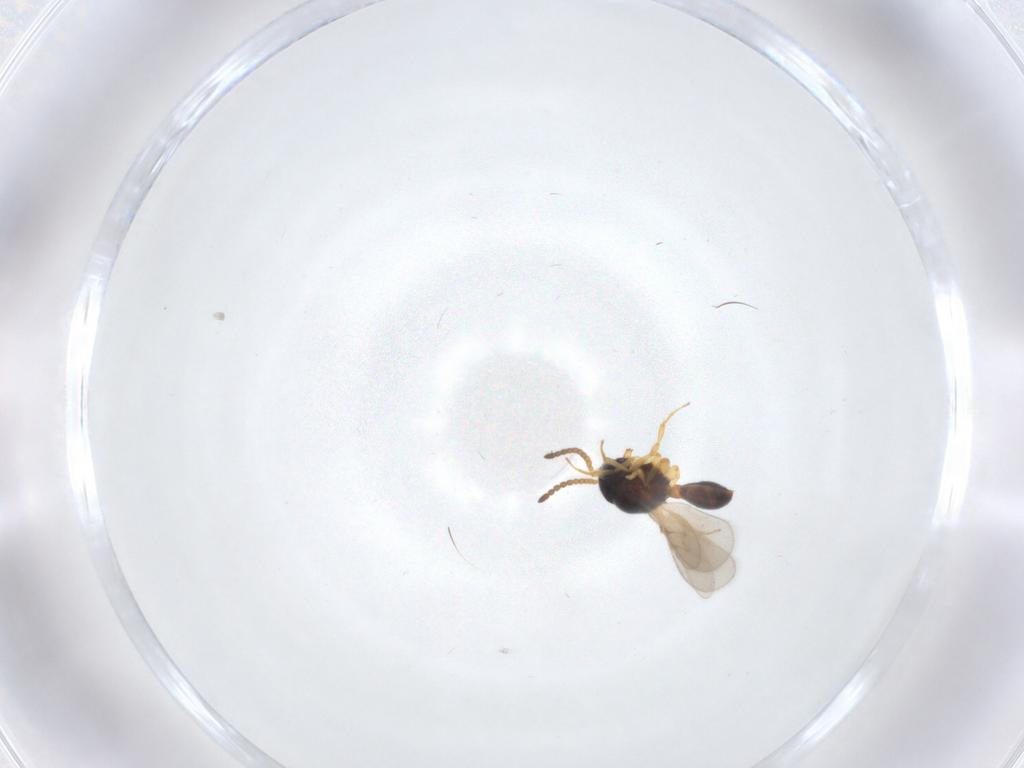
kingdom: Animalia
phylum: Arthropoda
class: Insecta
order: Hymenoptera
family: Scelionidae
